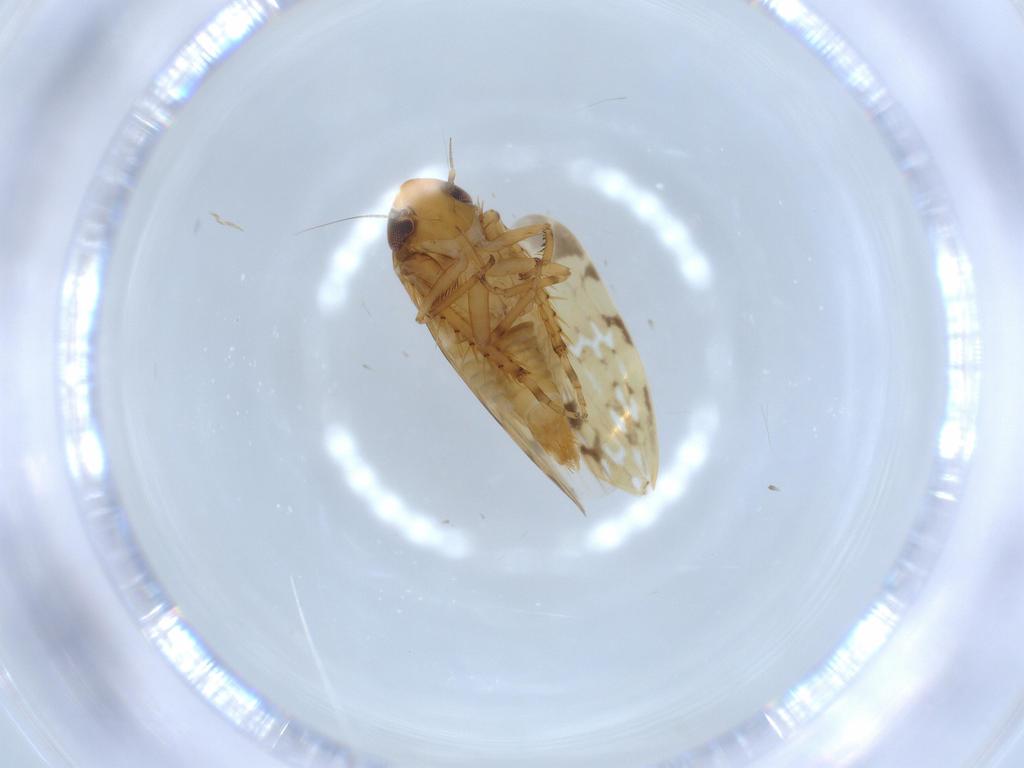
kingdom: Animalia
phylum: Arthropoda
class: Insecta
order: Hemiptera
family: Cicadellidae
